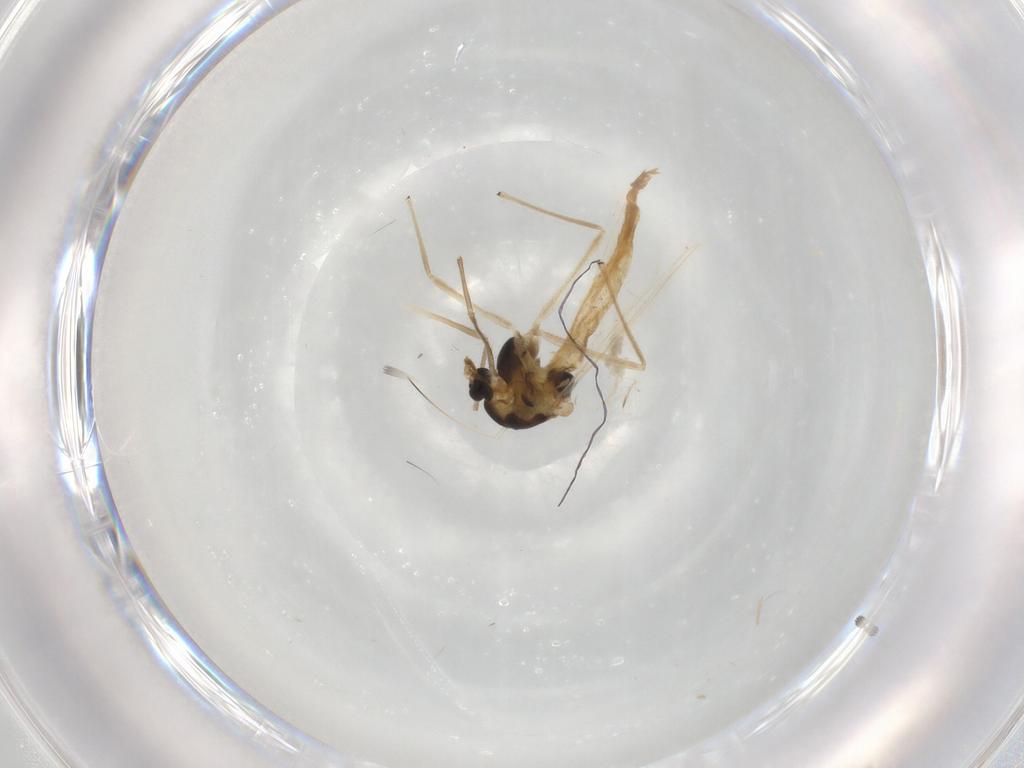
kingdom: Animalia
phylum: Arthropoda
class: Insecta
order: Diptera
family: Chironomidae
